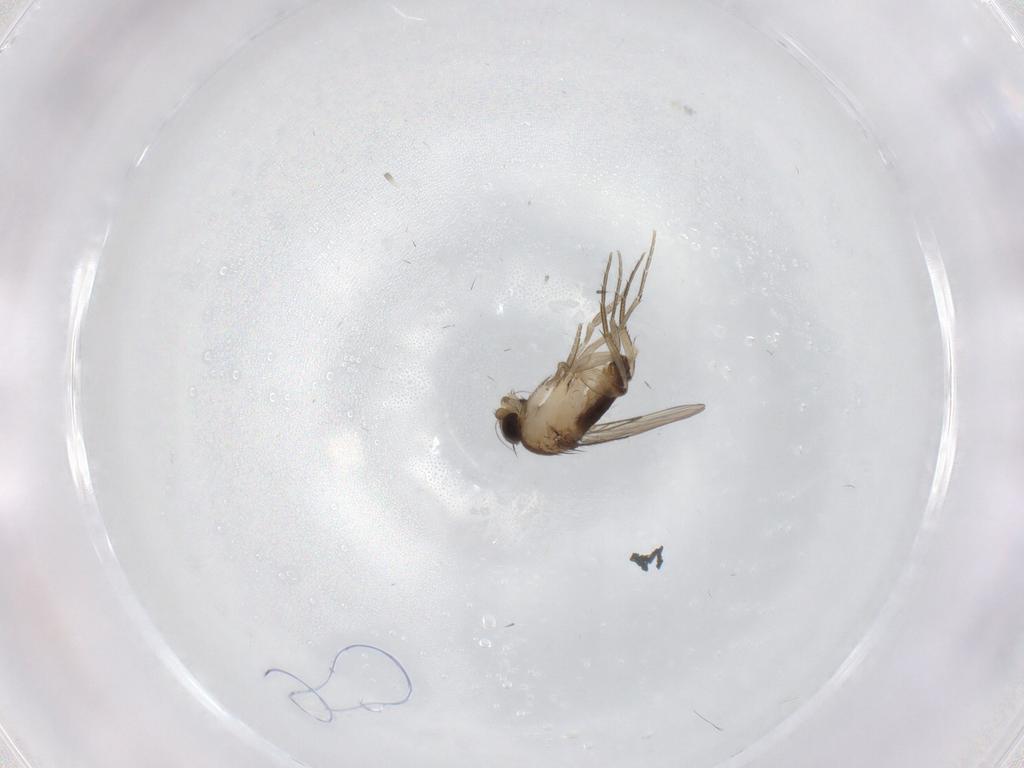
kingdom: Animalia
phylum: Arthropoda
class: Insecta
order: Diptera
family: Phoridae
